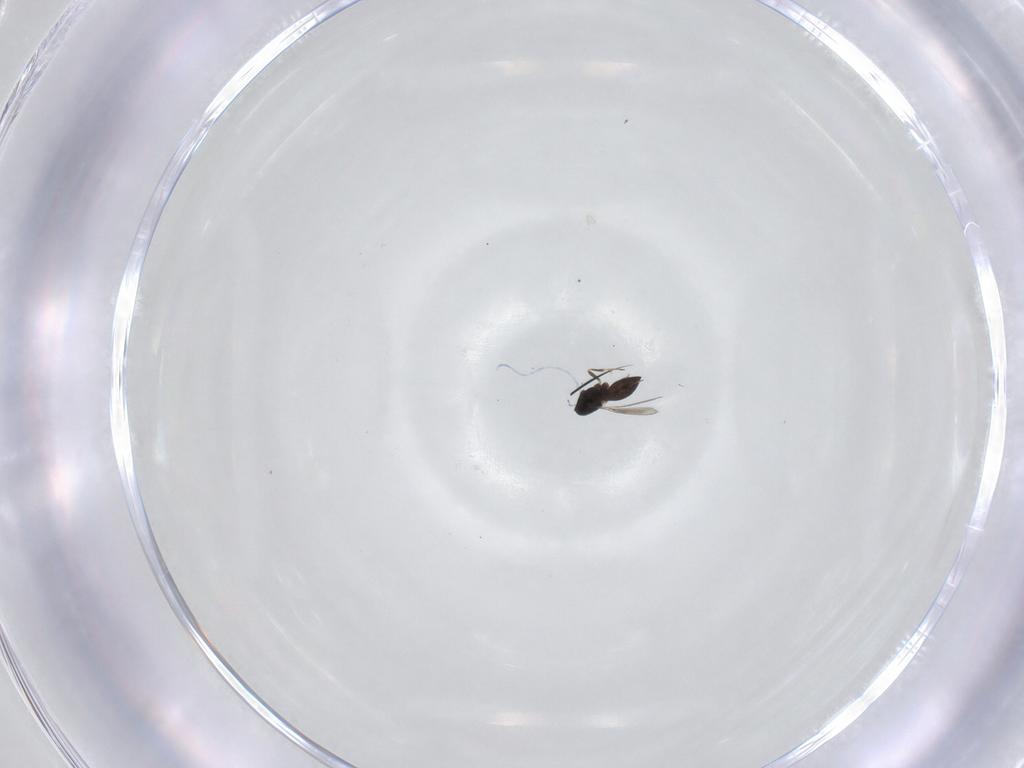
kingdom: Animalia
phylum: Arthropoda
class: Insecta
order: Hymenoptera
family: Scelionidae
